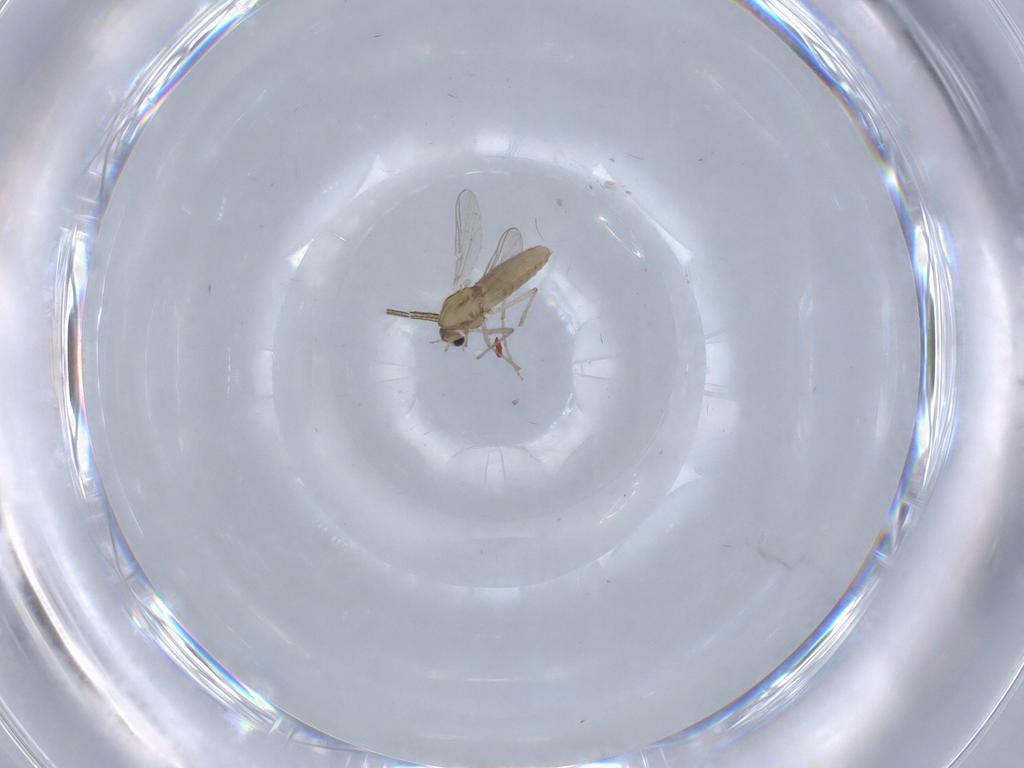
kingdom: Animalia
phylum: Arthropoda
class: Insecta
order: Diptera
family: Chironomidae
